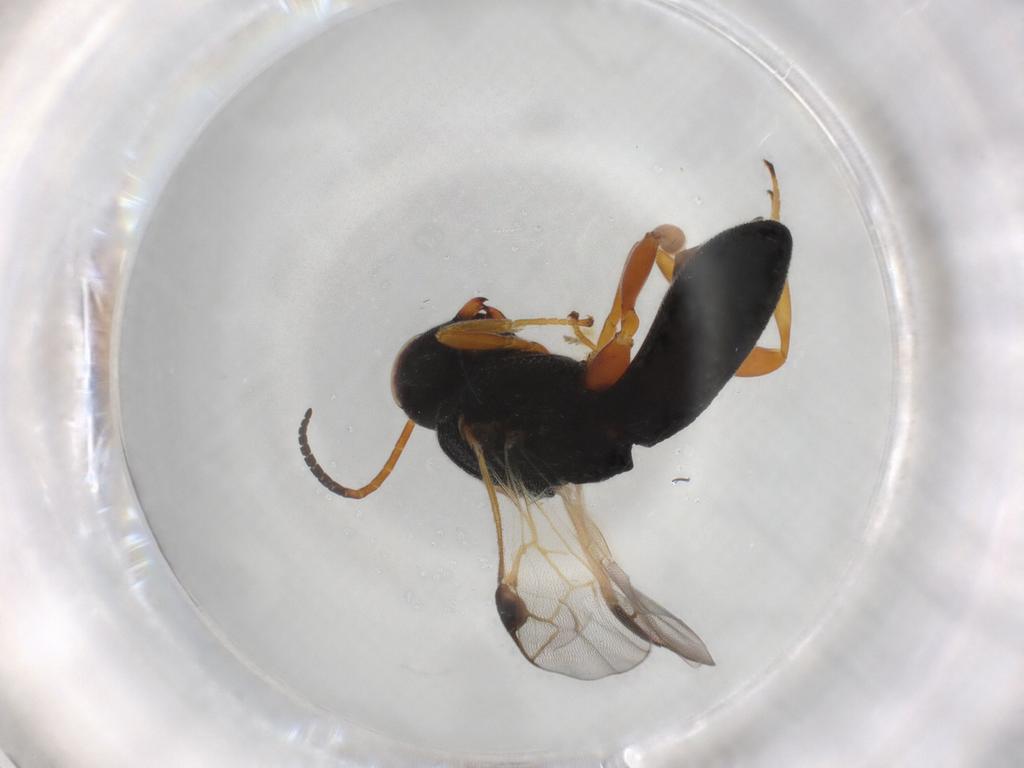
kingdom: Animalia
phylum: Arthropoda
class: Insecta
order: Hymenoptera
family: Braconidae
